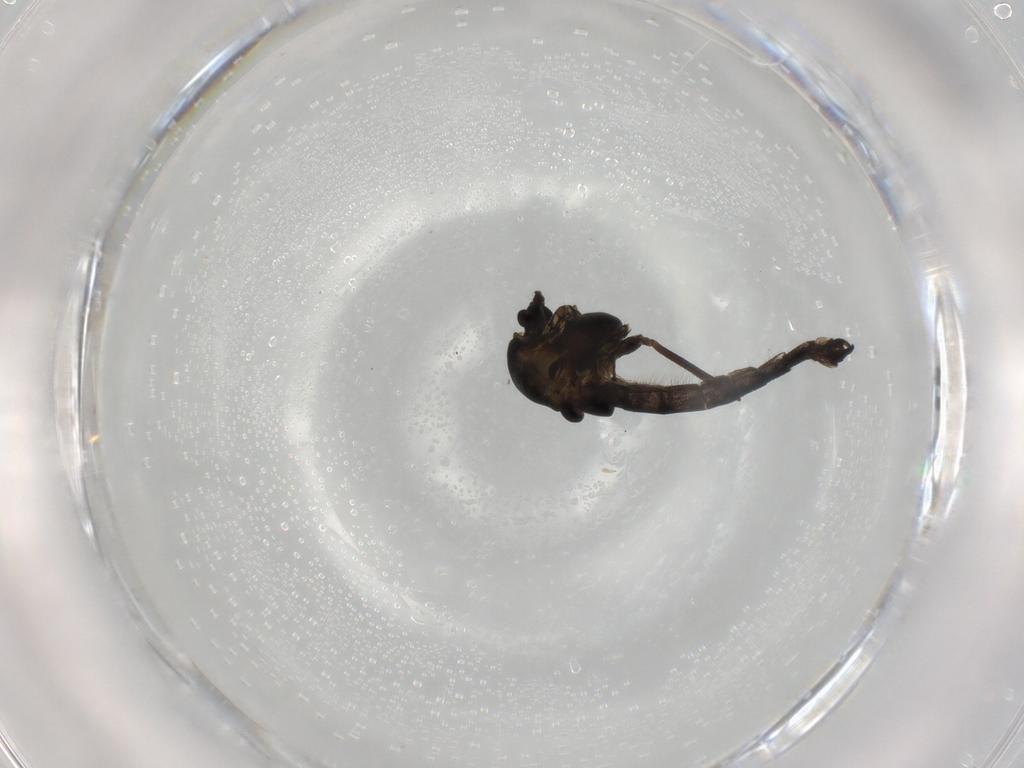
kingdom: Animalia
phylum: Arthropoda
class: Insecta
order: Diptera
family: Chironomidae
